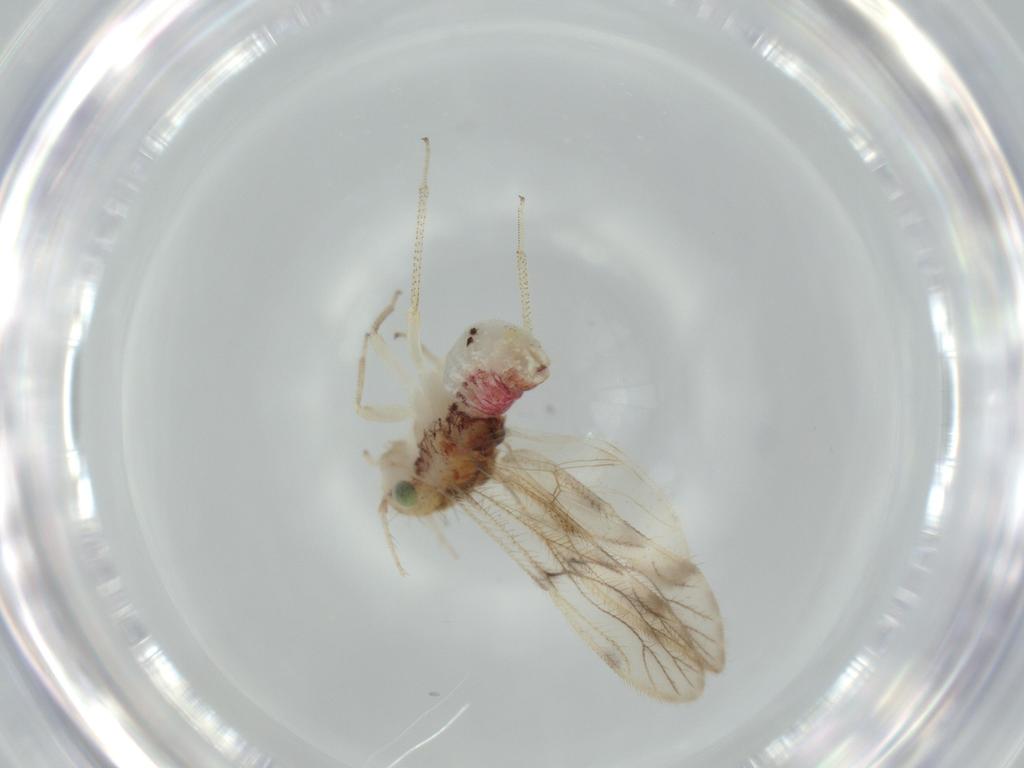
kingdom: Animalia
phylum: Arthropoda
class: Insecta
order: Psocodea
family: Pseudocaeciliidae
